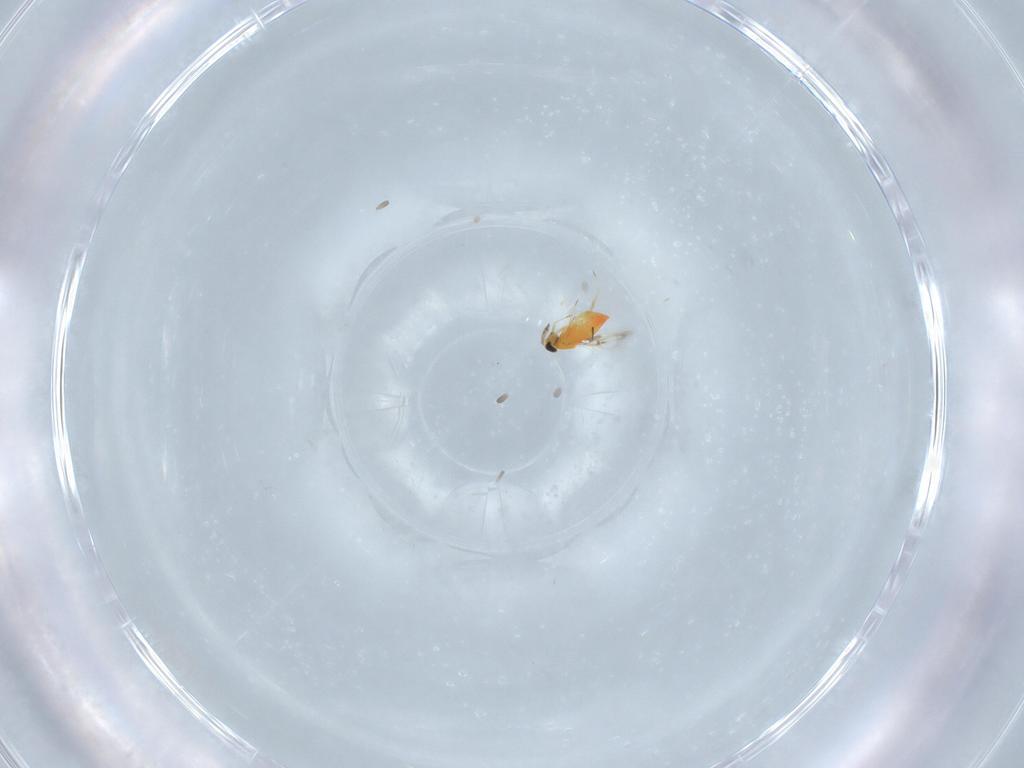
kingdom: Animalia
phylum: Arthropoda
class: Insecta
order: Hymenoptera
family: Trichogrammatidae
